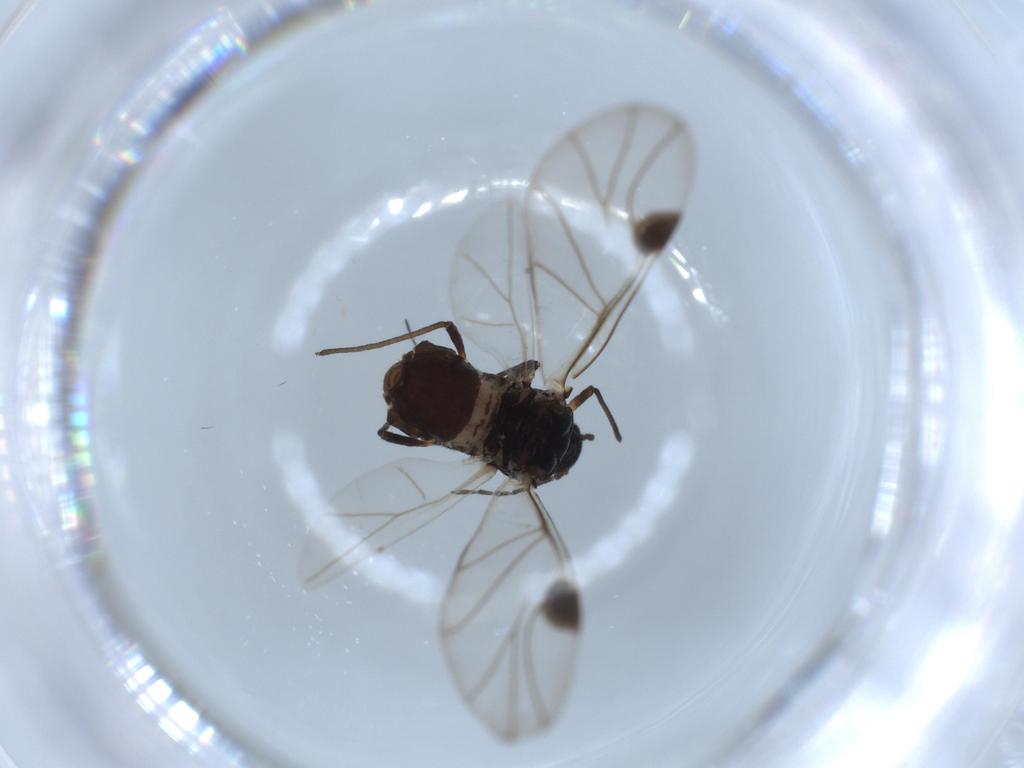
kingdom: Animalia
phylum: Arthropoda
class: Insecta
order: Hemiptera
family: Aphididae
